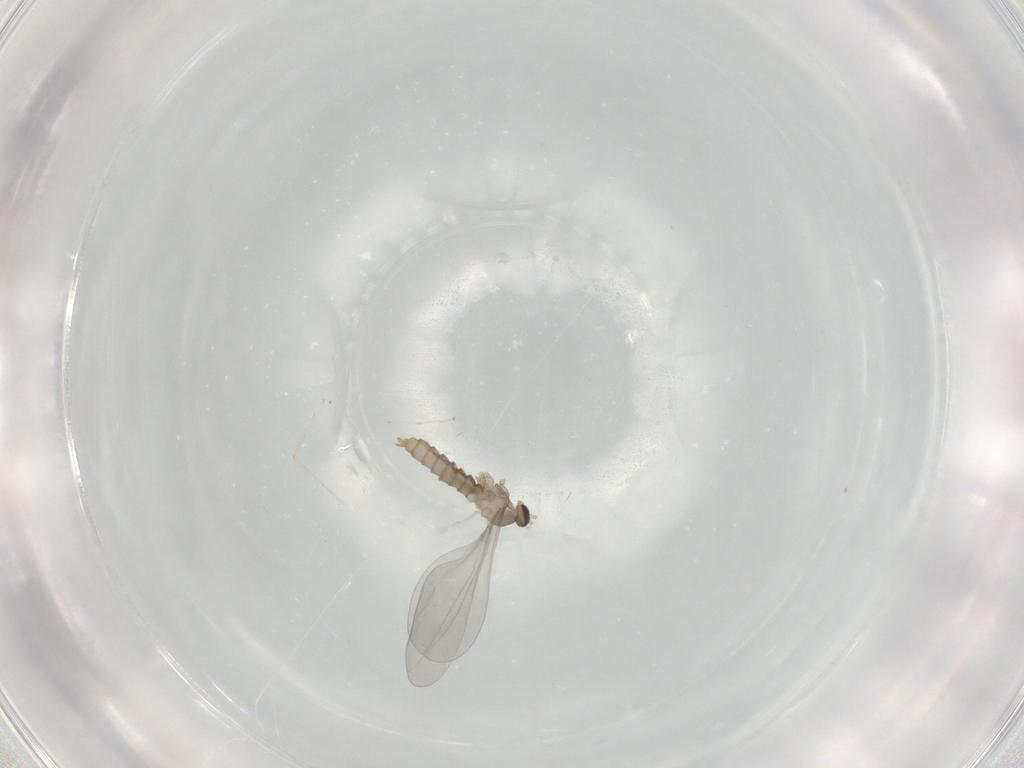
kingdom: Animalia
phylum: Arthropoda
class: Insecta
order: Diptera
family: Cecidomyiidae
